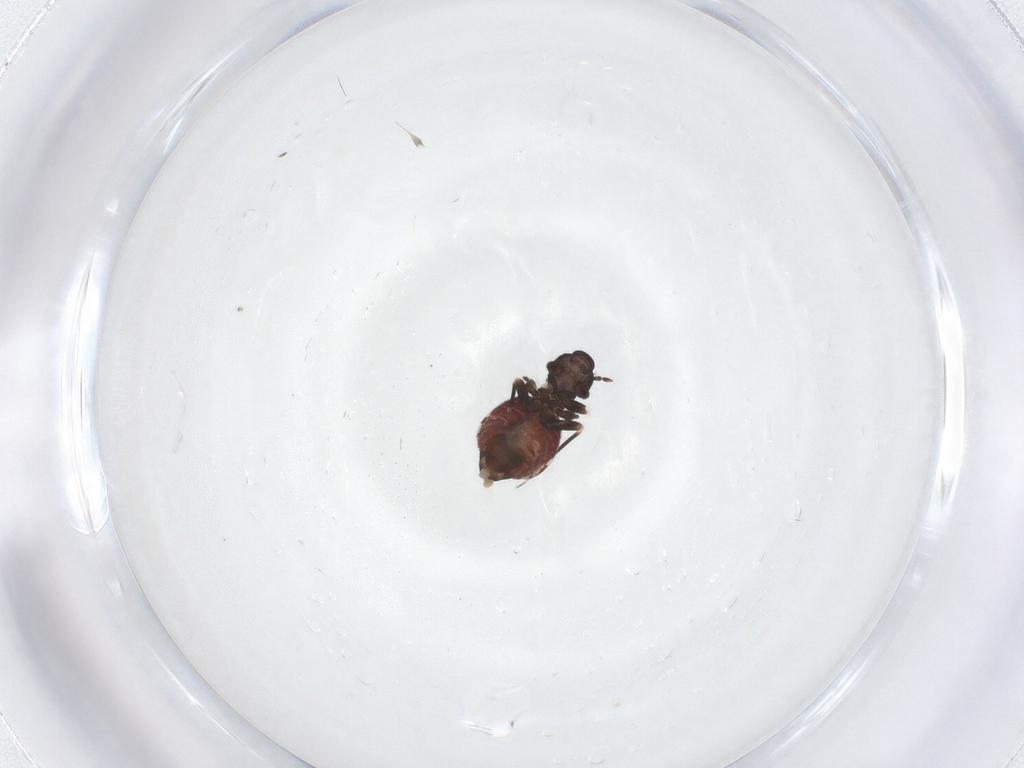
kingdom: Animalia
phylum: Arthropoda
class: Insecta
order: Psocodea
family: Lepidopsocidae
